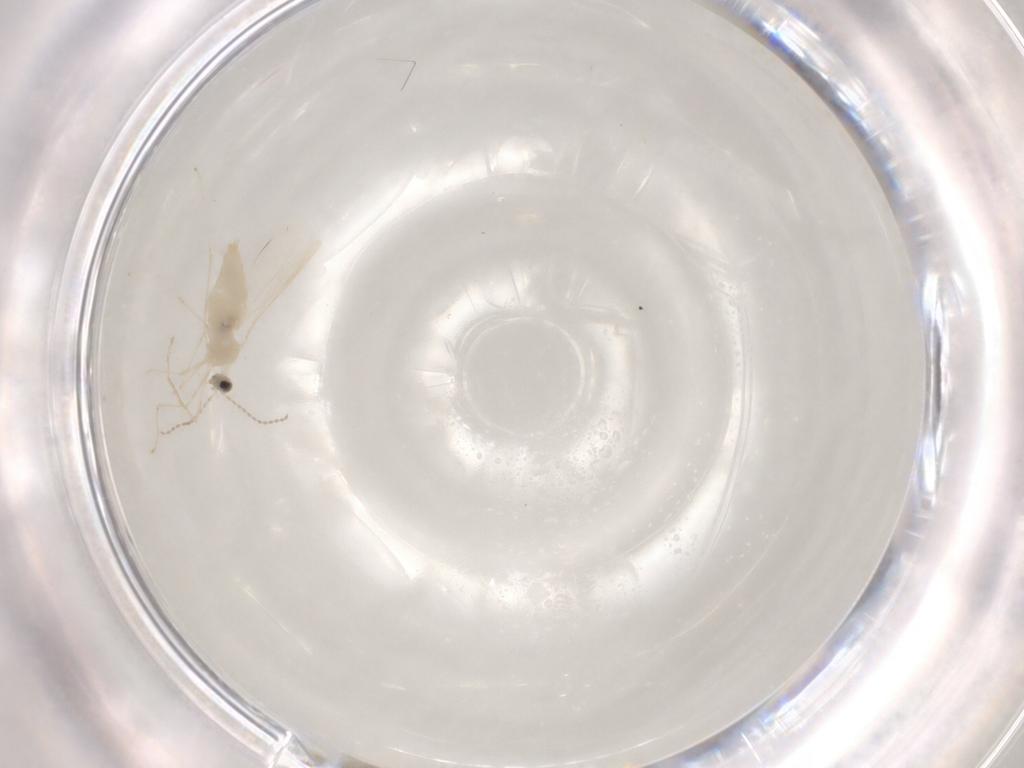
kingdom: Animalia
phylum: Arthropoda
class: Insecta
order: Diptera
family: Cecidomyiidae
